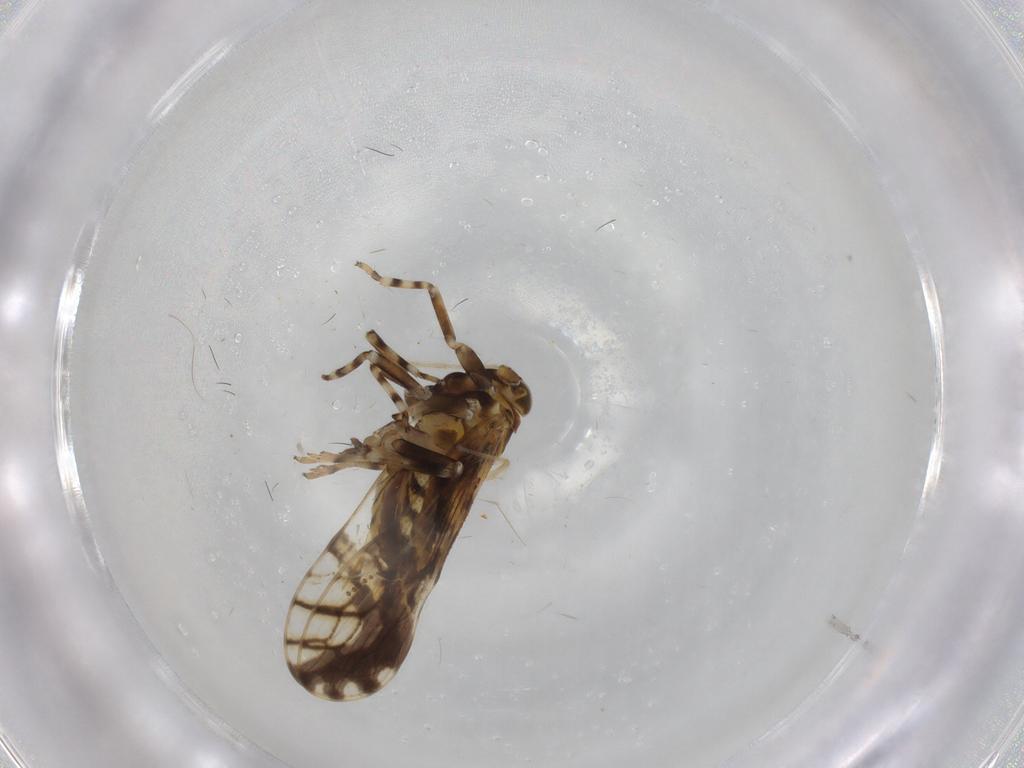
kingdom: Animalia
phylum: Arthropoda
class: Insecta
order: Hemiptera
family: Delphacidae
